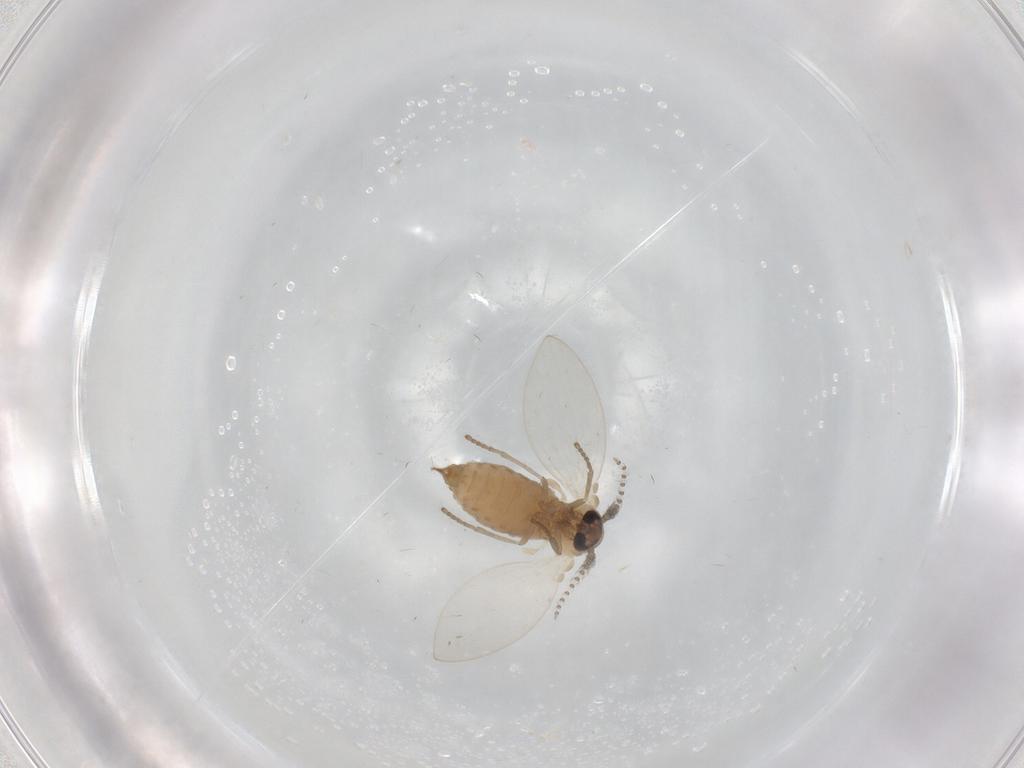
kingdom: Animalia
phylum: Arthropoda
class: Insecta
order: Diptera
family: Psychodidae
